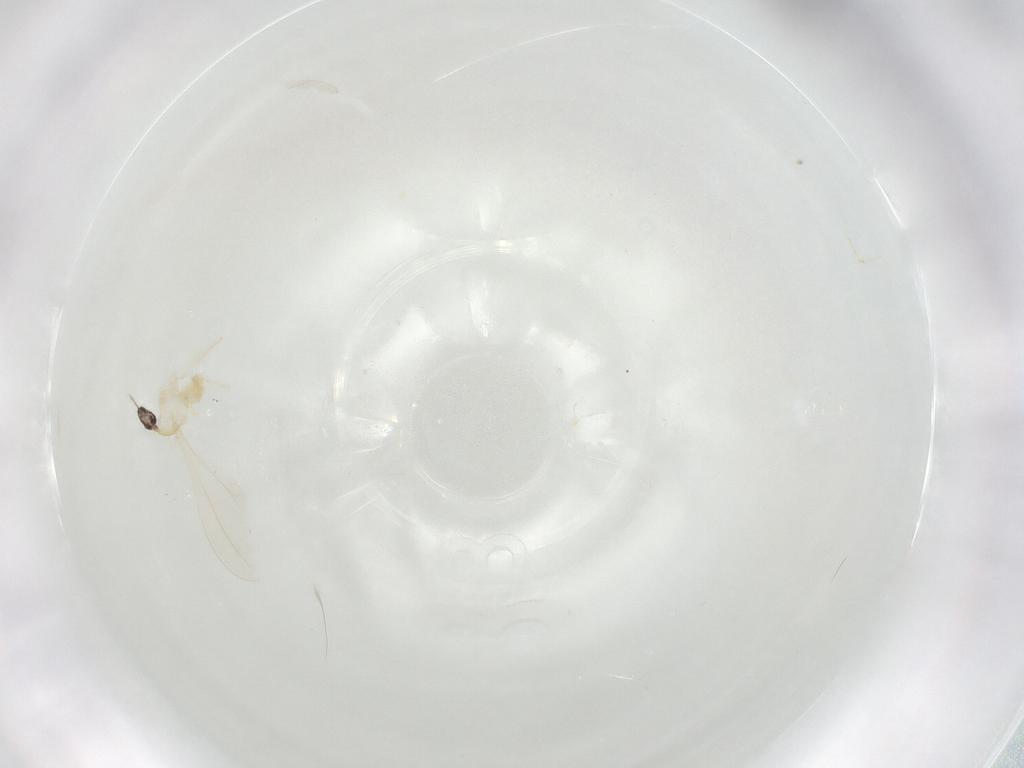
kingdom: Animalia
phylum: Arthropoda
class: Insecta
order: Diptera
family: Cecidomyiidae
